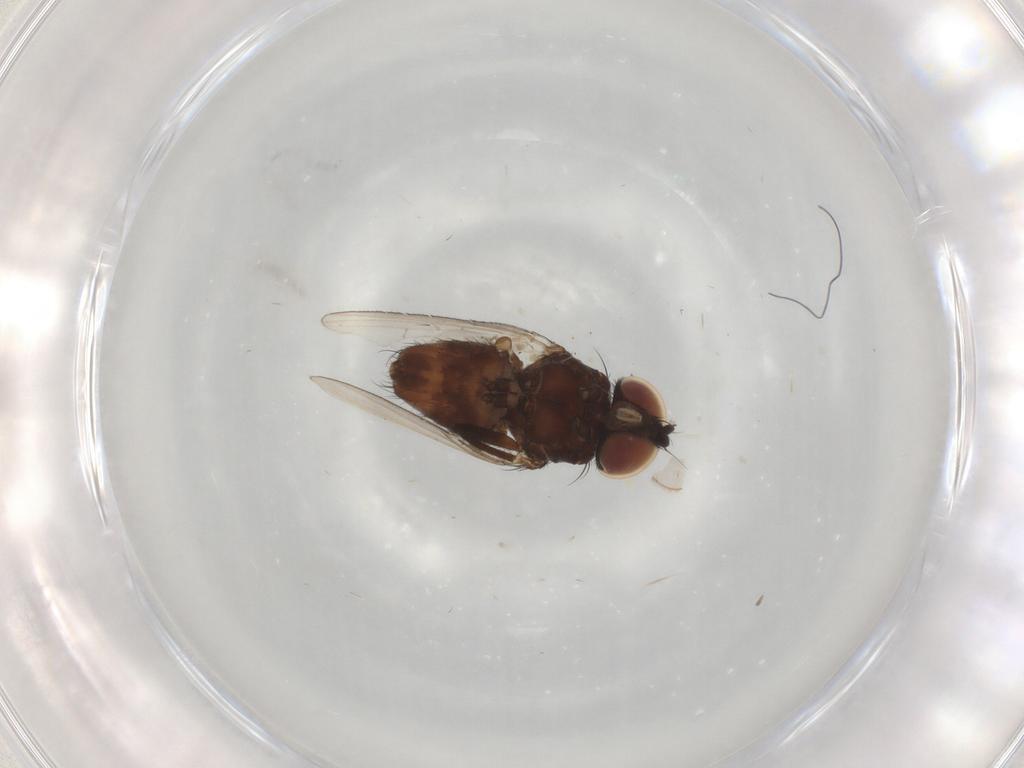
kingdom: Animalia
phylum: Arthropoda
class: Insecta
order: Diptera
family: Milichiidae
